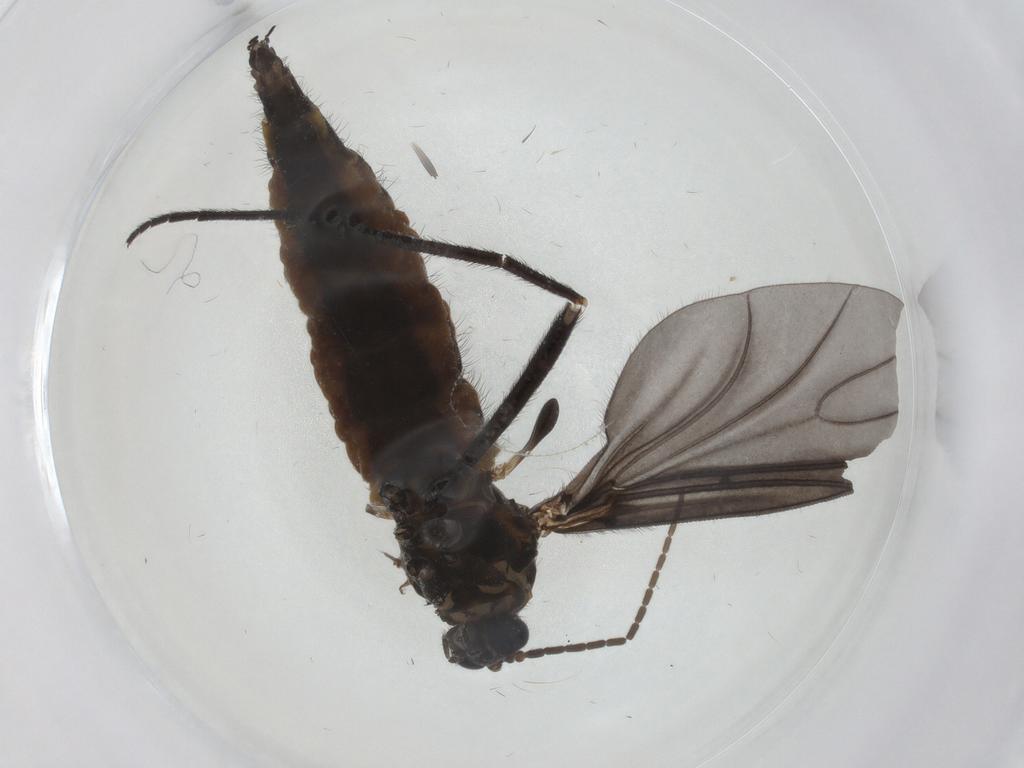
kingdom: Animalia
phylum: Arthropoda
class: Insecta
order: Diptera
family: Sciaridae
